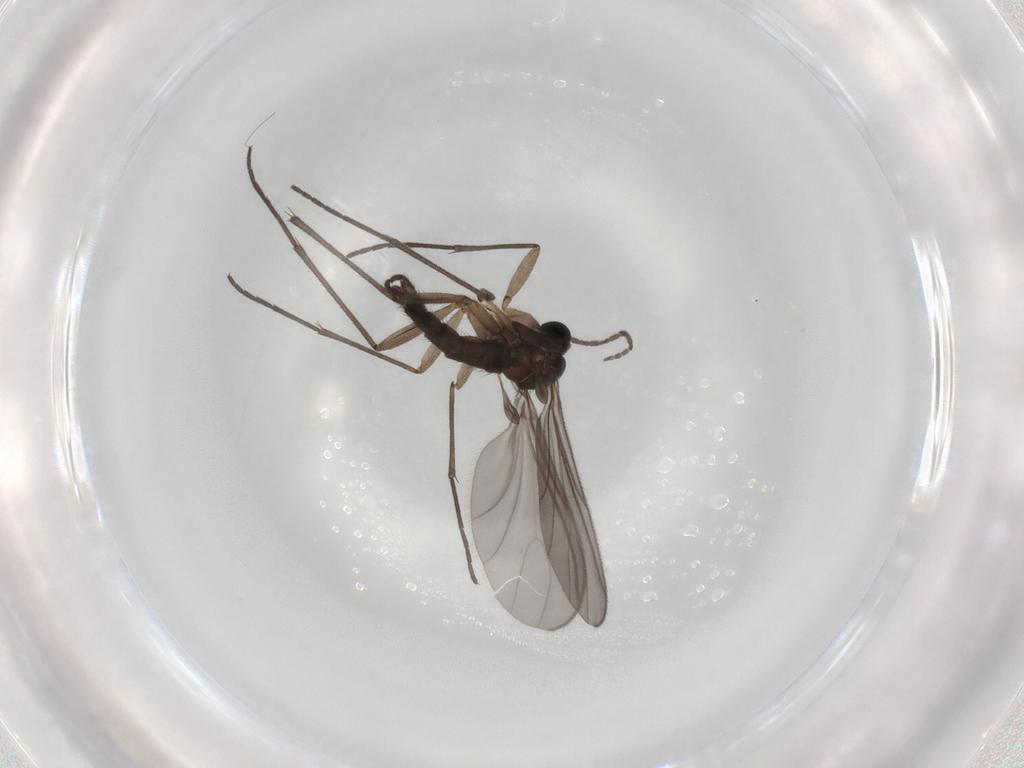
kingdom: Animalia
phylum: Arthropoda
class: Insecta
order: Diptera
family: Sciaridae
